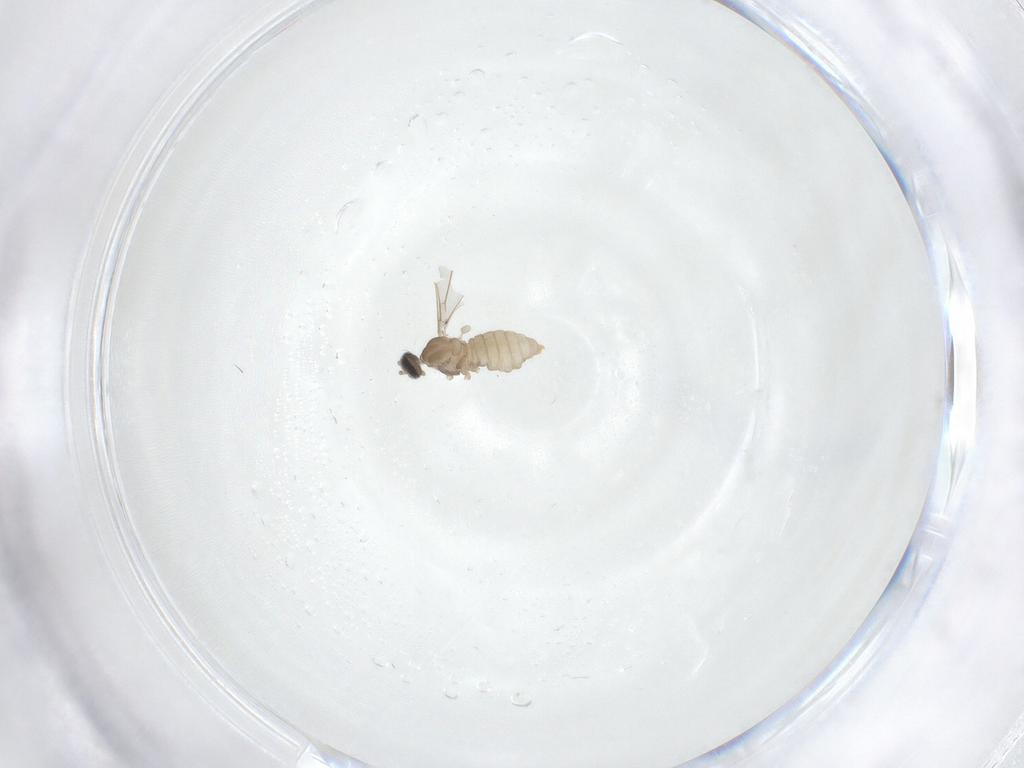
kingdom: Animalia
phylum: Arthropoda
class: Insecta
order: Diptera
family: Cecidomyiidae
